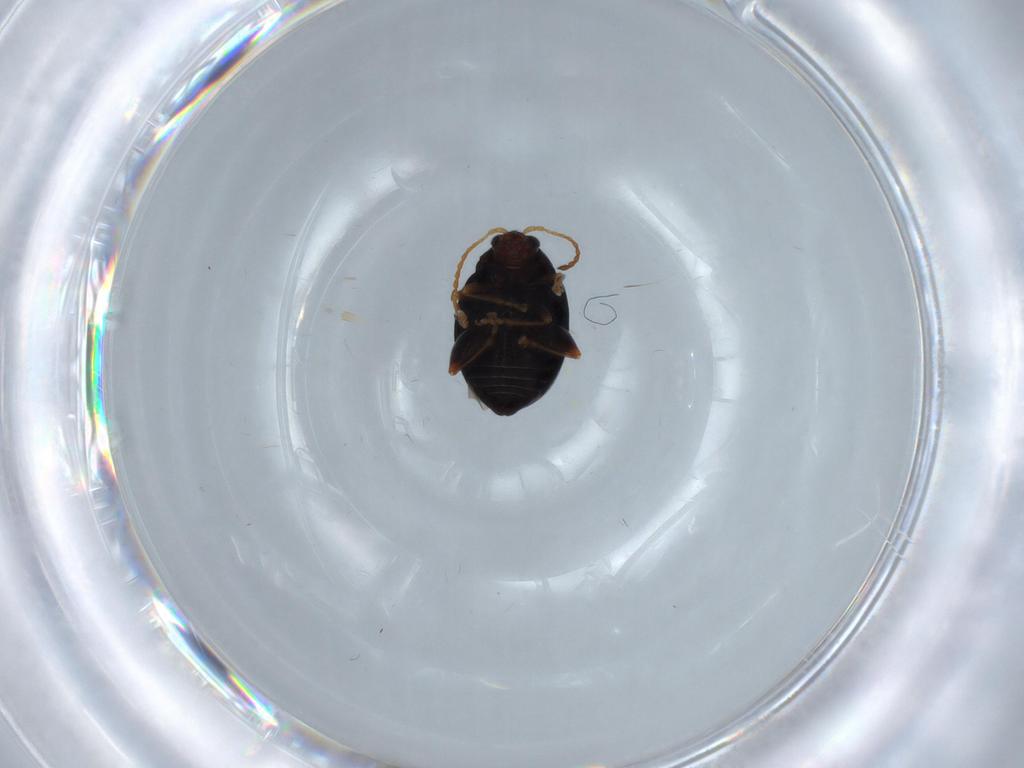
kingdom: Animalia
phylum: Arthropoda
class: Insecta
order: Coleoptera
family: Chrysomelidae
